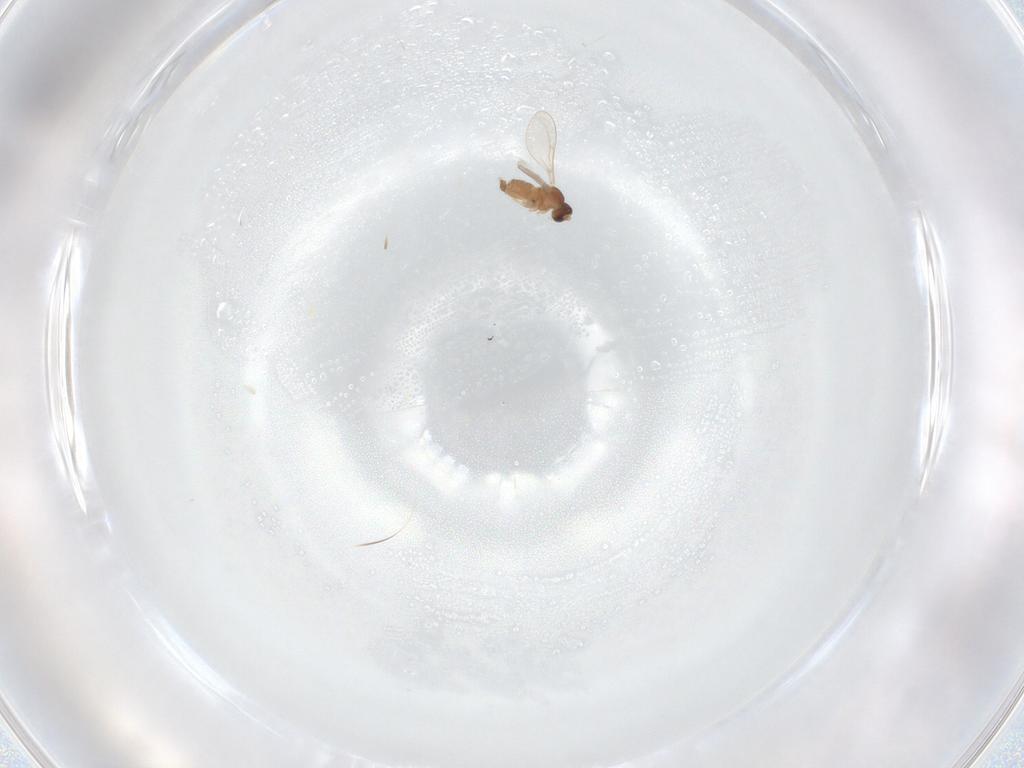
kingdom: Animalia
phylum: Arthropoda
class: Insecta
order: Diptera
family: Cecidomyiidae
